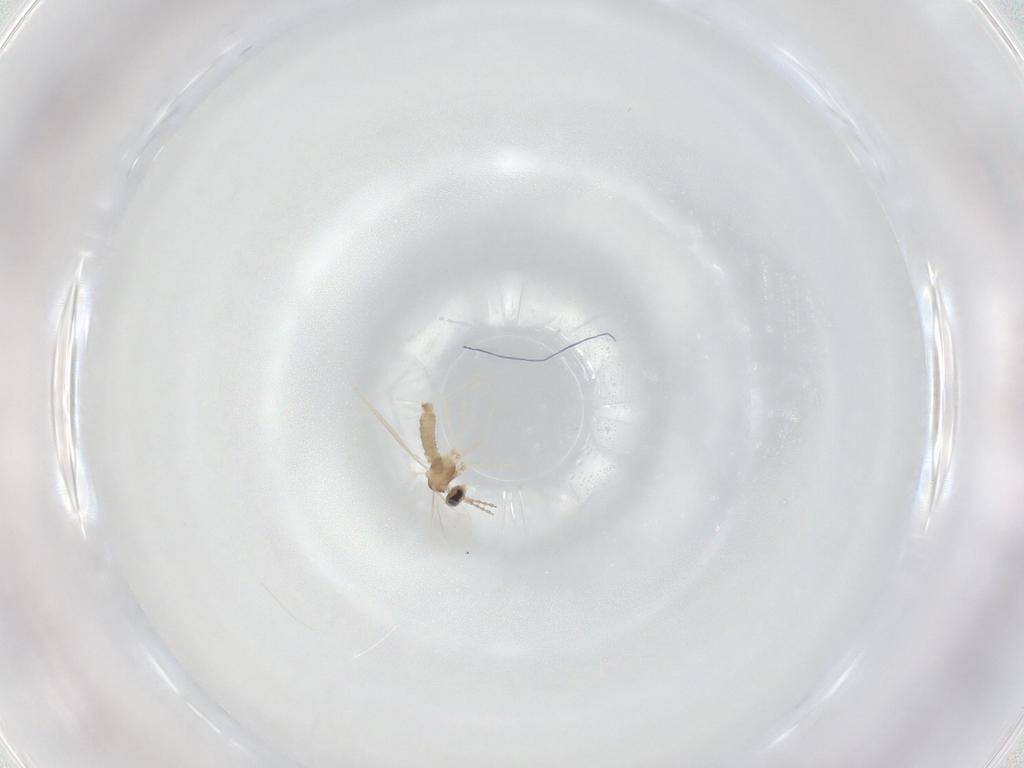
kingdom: Animalia
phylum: Arthropoda
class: Insecta
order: Diptera
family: Cecidomyiidae
